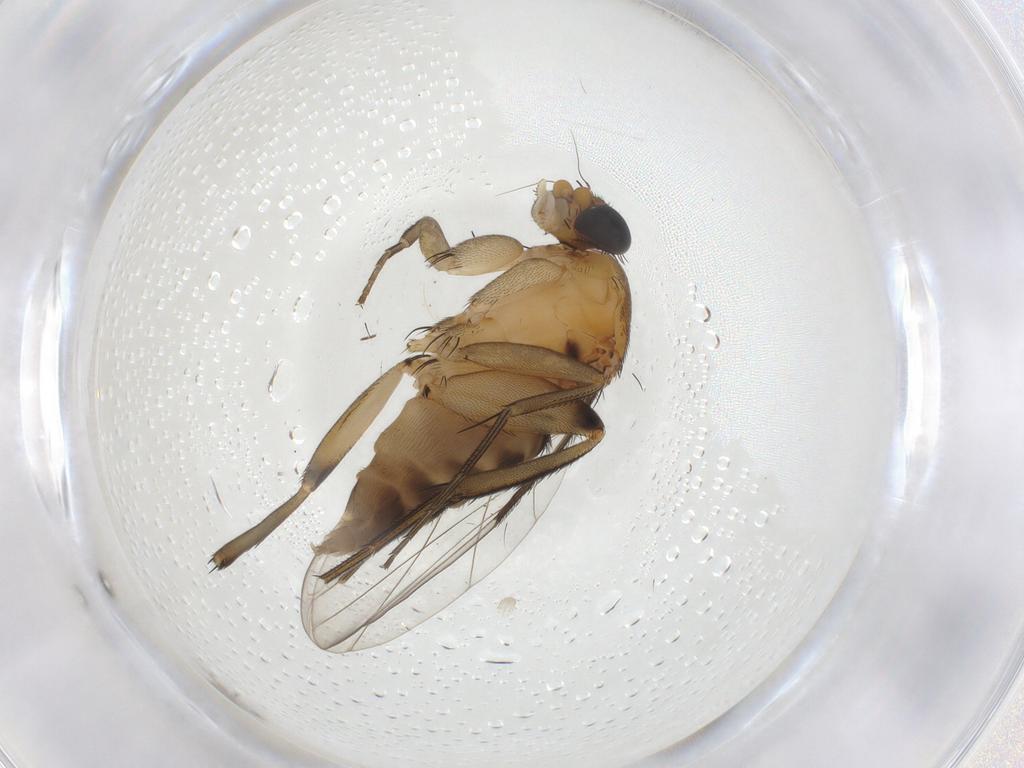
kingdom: Animalia
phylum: Arthropoda
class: Insecta
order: Diptera
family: Phoridae
